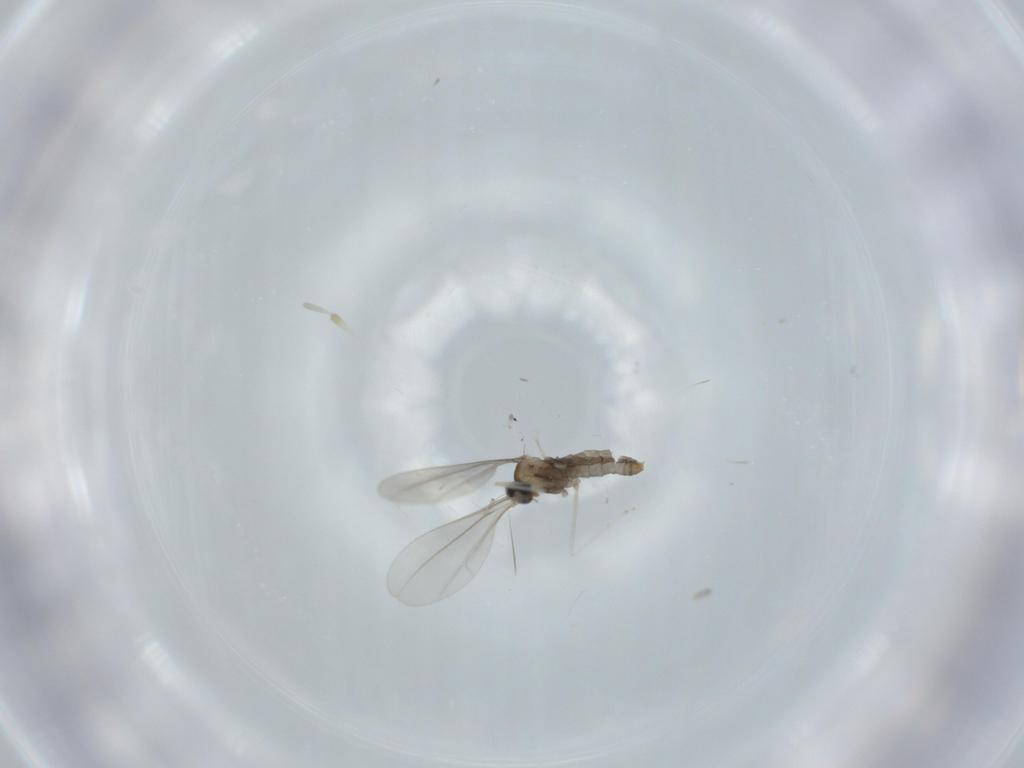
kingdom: Animalia
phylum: Arthropoda
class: Insecta
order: Diptera
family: Cecidomyiidae
